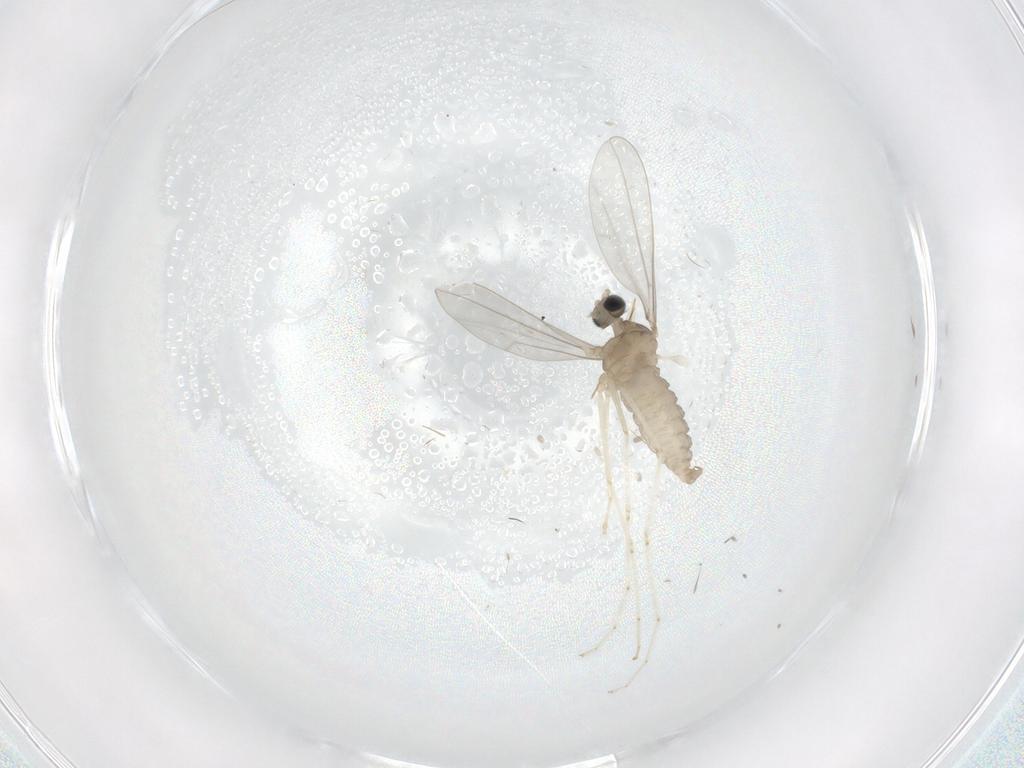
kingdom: Animalia
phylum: Arthropoda
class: Insecta
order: Diptera
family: Cecidomyiidae
